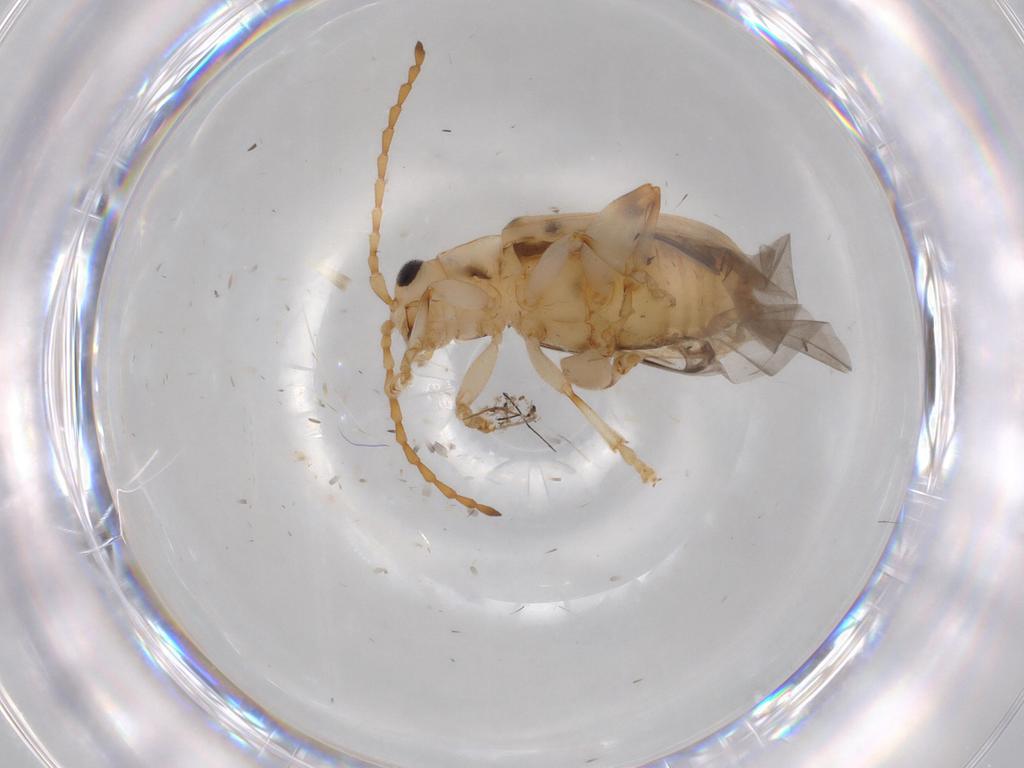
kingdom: Animalia
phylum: Arthropoda
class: Insecta
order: Coleoptera
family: Chrysomelidae
